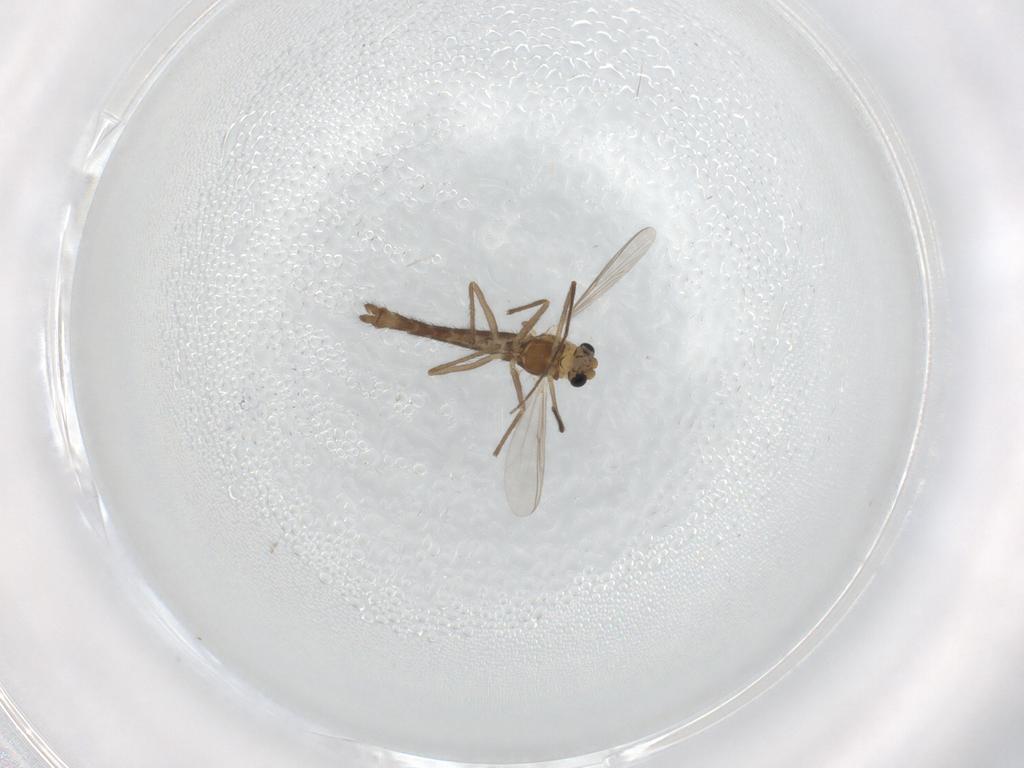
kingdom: Animalia
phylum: Arthropoda
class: Insecta
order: Diptera
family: Chironomidae
